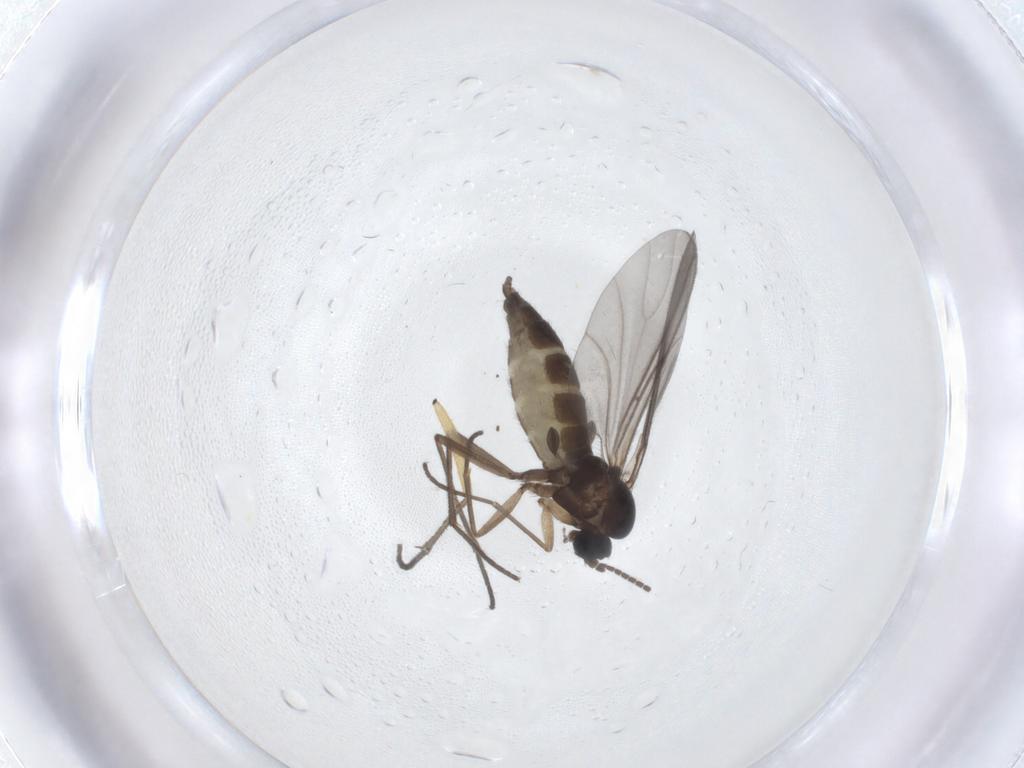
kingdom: Animalia
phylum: Arthropoda
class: Insecta
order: Diptera
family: Sciaridae
